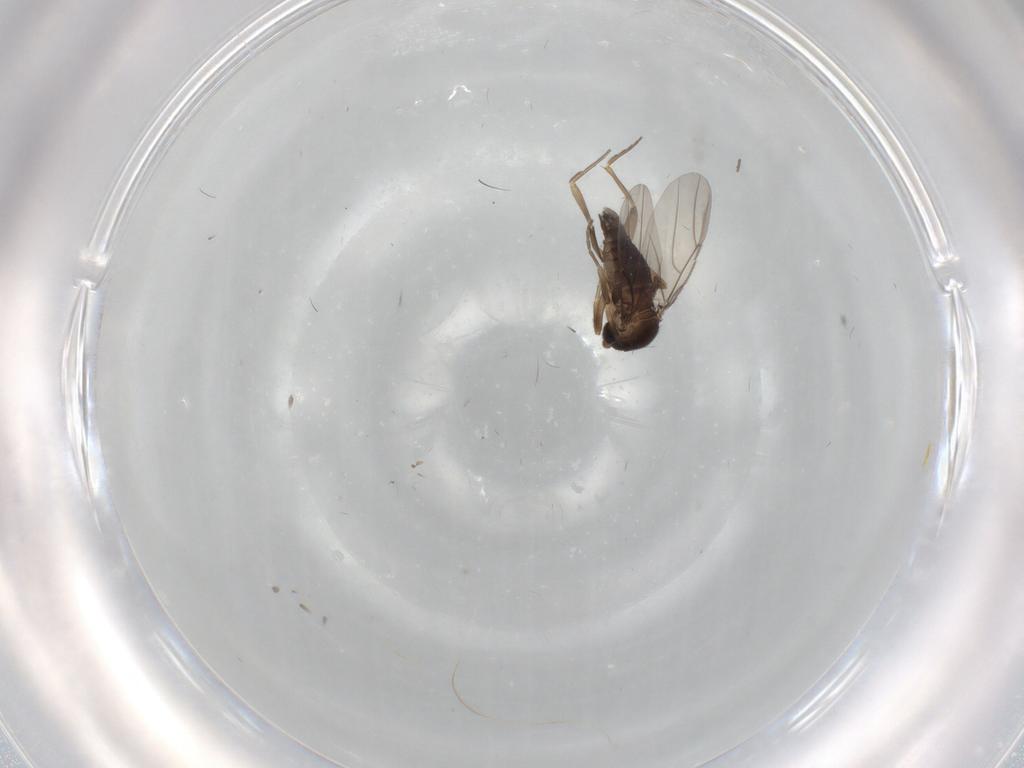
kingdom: Animalia
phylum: Arthropoda
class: Insecta
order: Diptera
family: Phoridae
